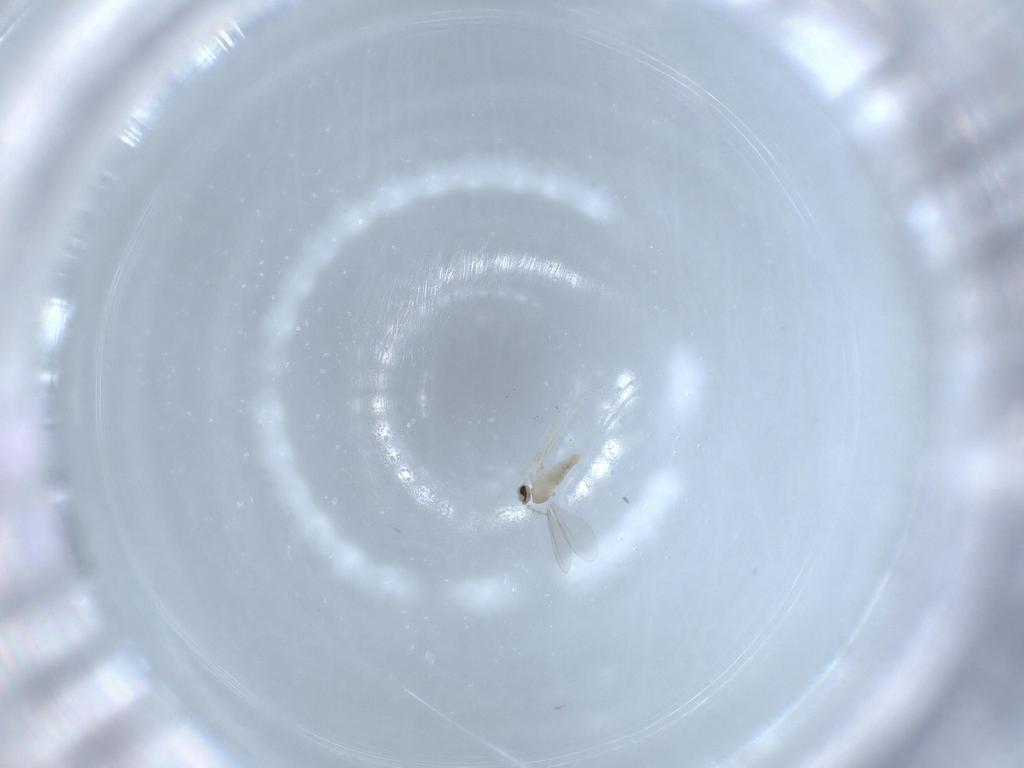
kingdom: Animalia
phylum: Arthropoda
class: Insecta
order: Diptera
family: Cecidomyiidae
